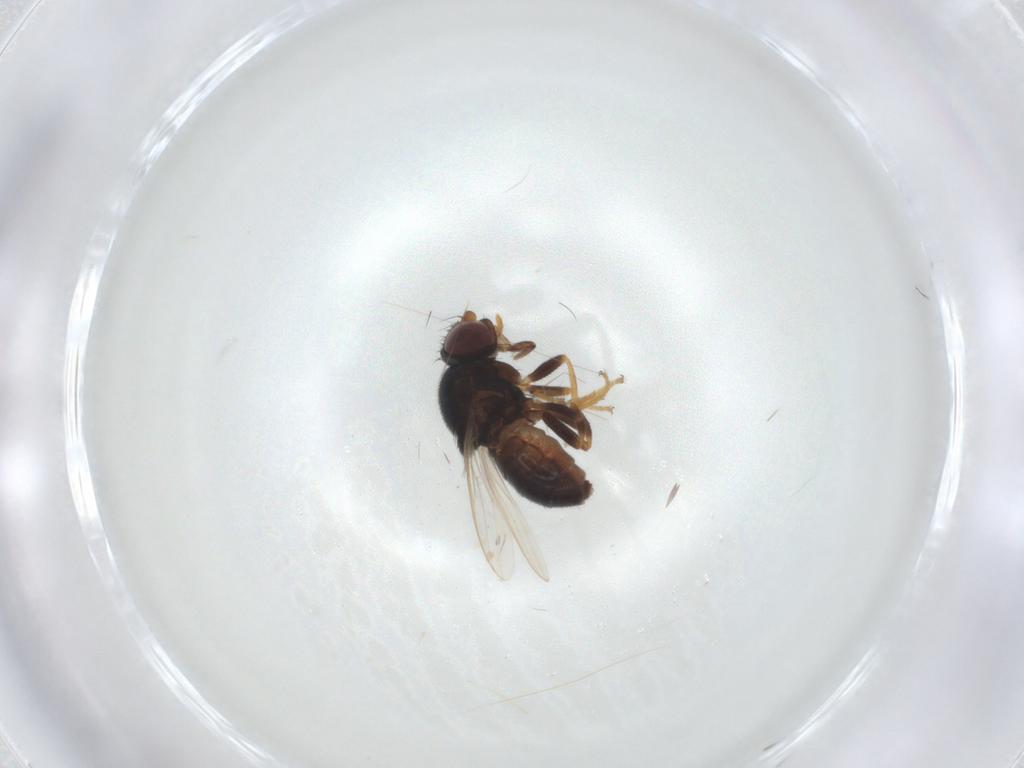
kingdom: Animalia
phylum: Arthropoda
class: Insecta
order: Diptera
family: Chloropidae
